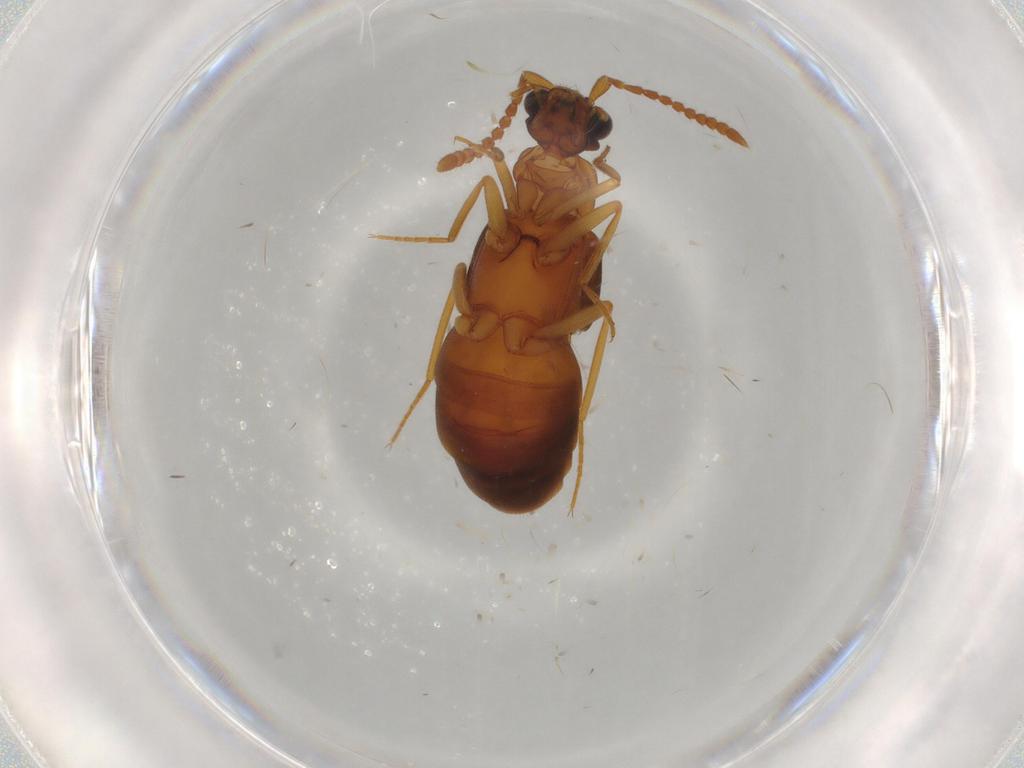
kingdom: Animalia
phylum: Arthropoda
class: Insecta
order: Coleoptera
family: Staphylinidae
